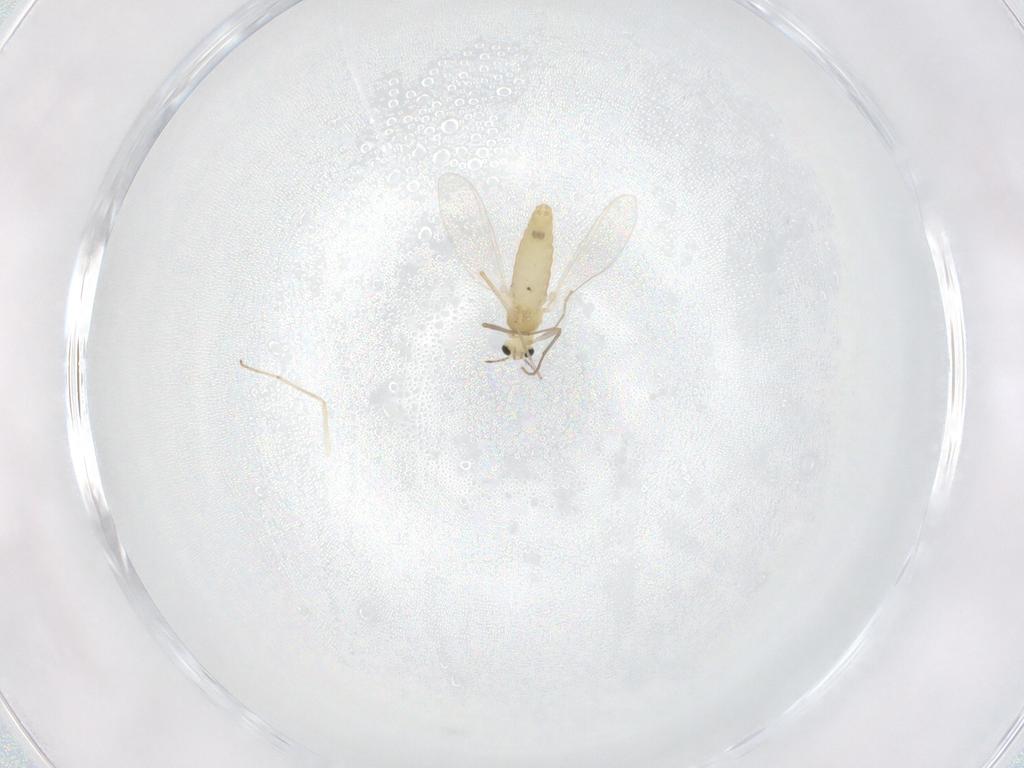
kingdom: Animalia
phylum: Arthropoda
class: Insecta
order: Diptera
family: Chironomidae
